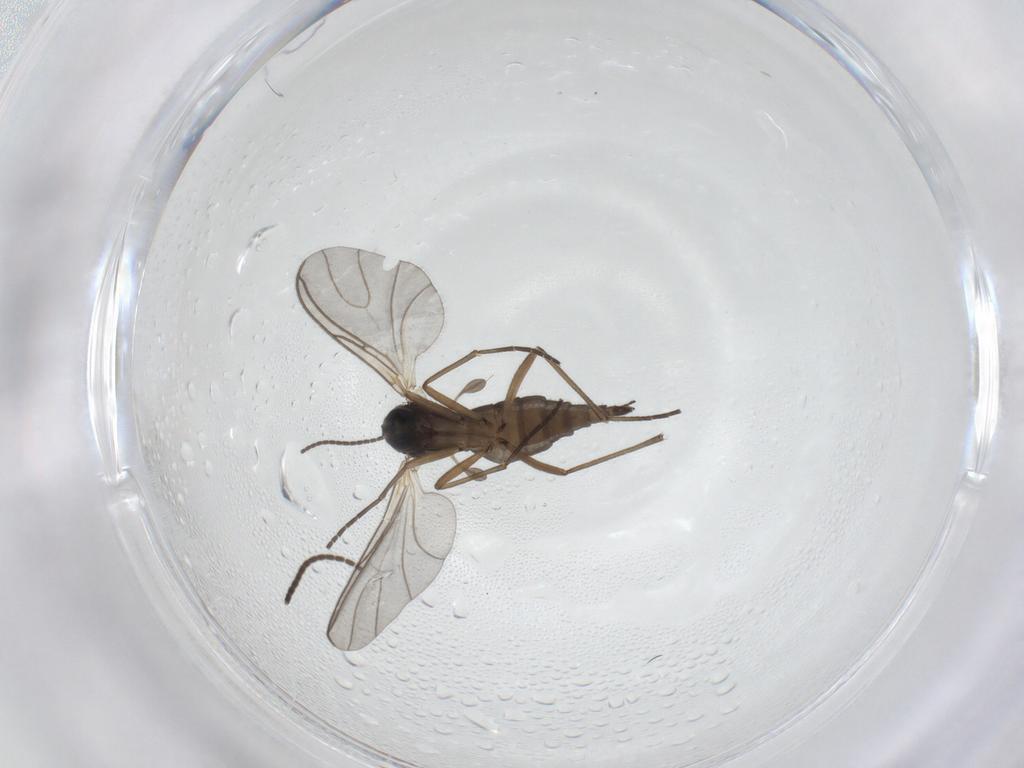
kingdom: Animalia
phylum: Arthropoda
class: Insecta
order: Diptera
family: Sciaridae
